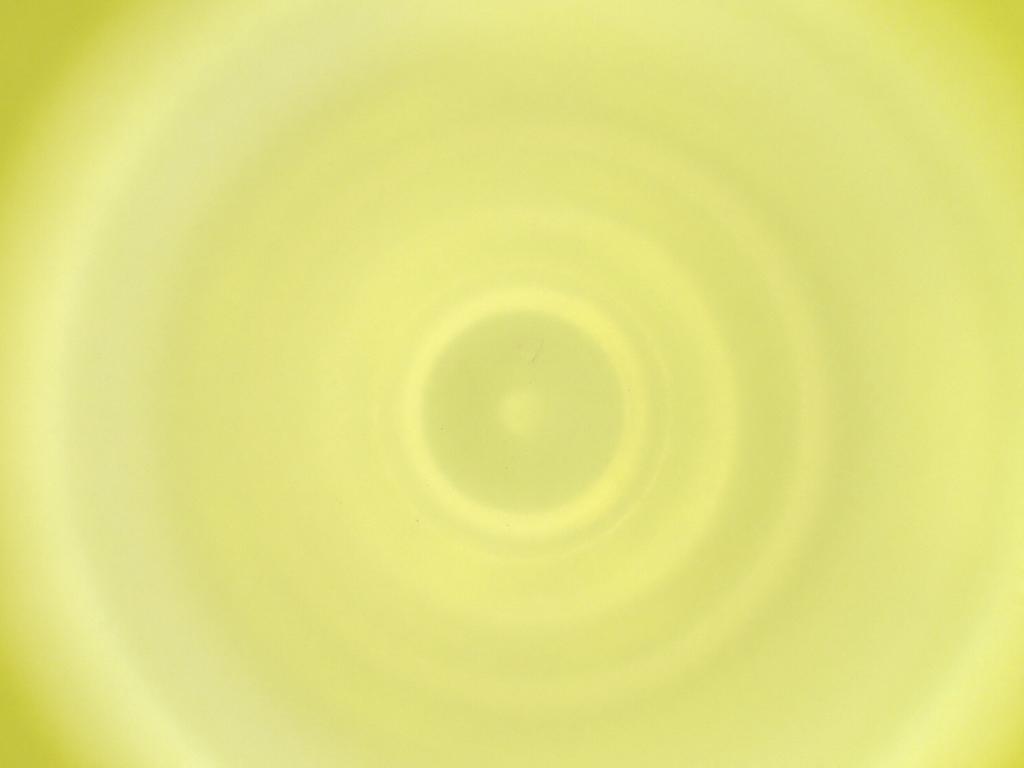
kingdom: Animalia
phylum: Arthropoda
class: Insecta
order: Diptera
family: Cecidomyiidae
